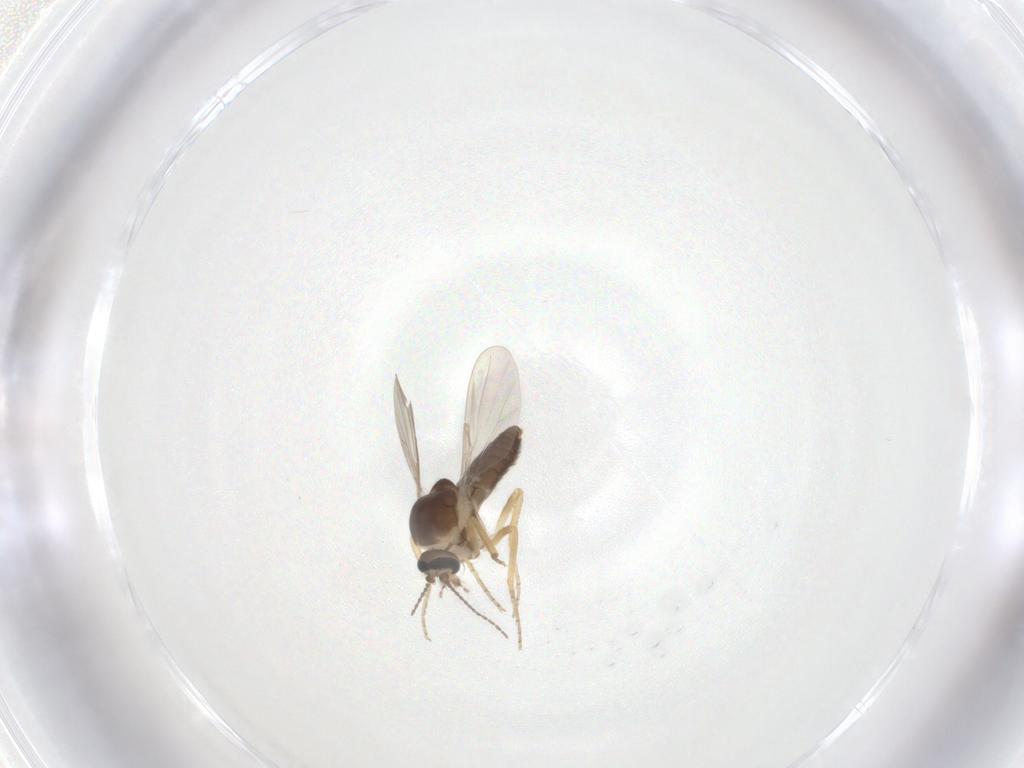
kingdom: Animalia
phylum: Arthropoda
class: Insecta
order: Diptera
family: Ceratopogonidae
